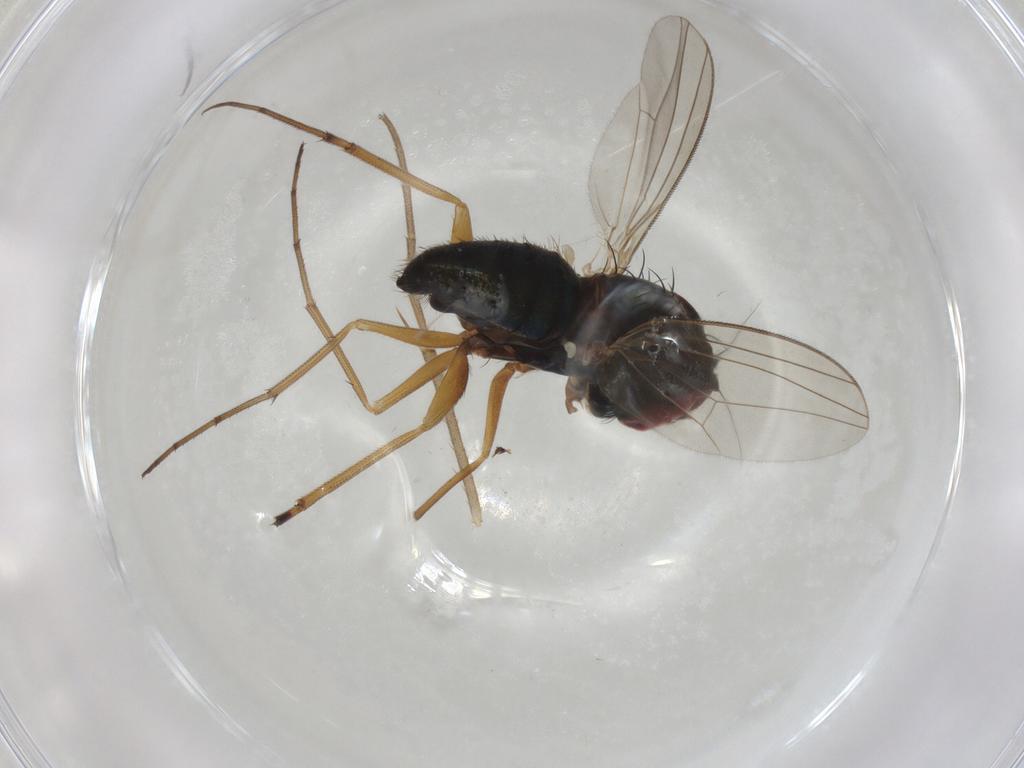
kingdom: Animalia
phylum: Arthropoda
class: Insecta
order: Diptera
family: Dolichopodidae
